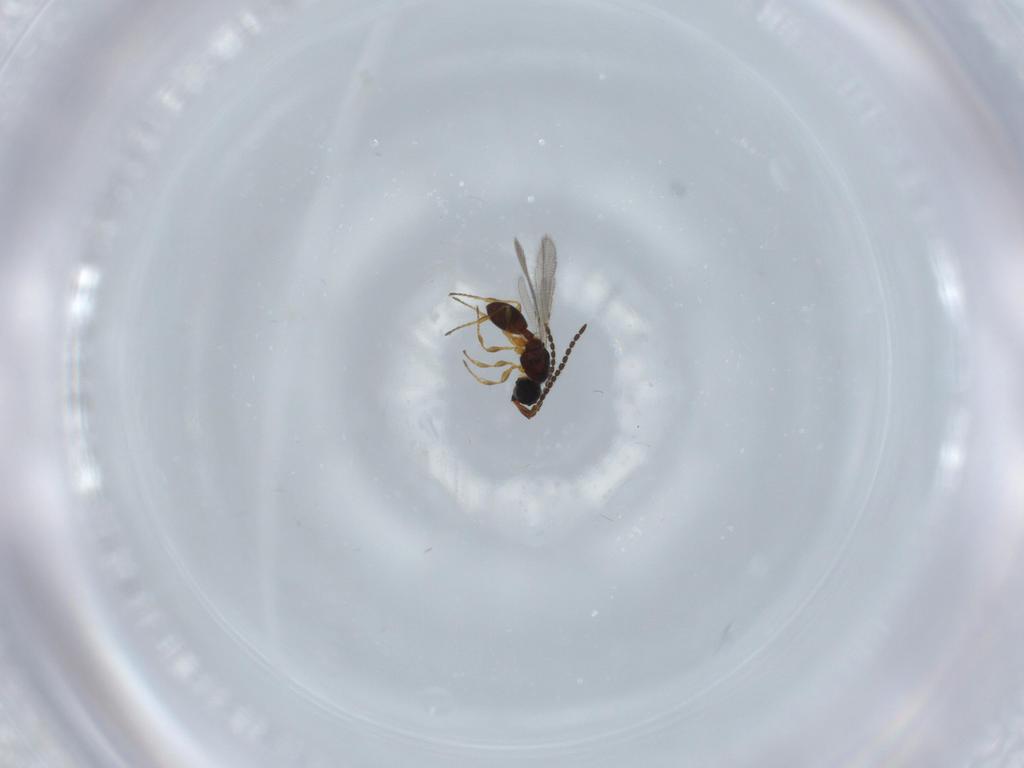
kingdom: Animalia
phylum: Arthropoda
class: Insecta
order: Hymenoptera
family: Diapriidae
